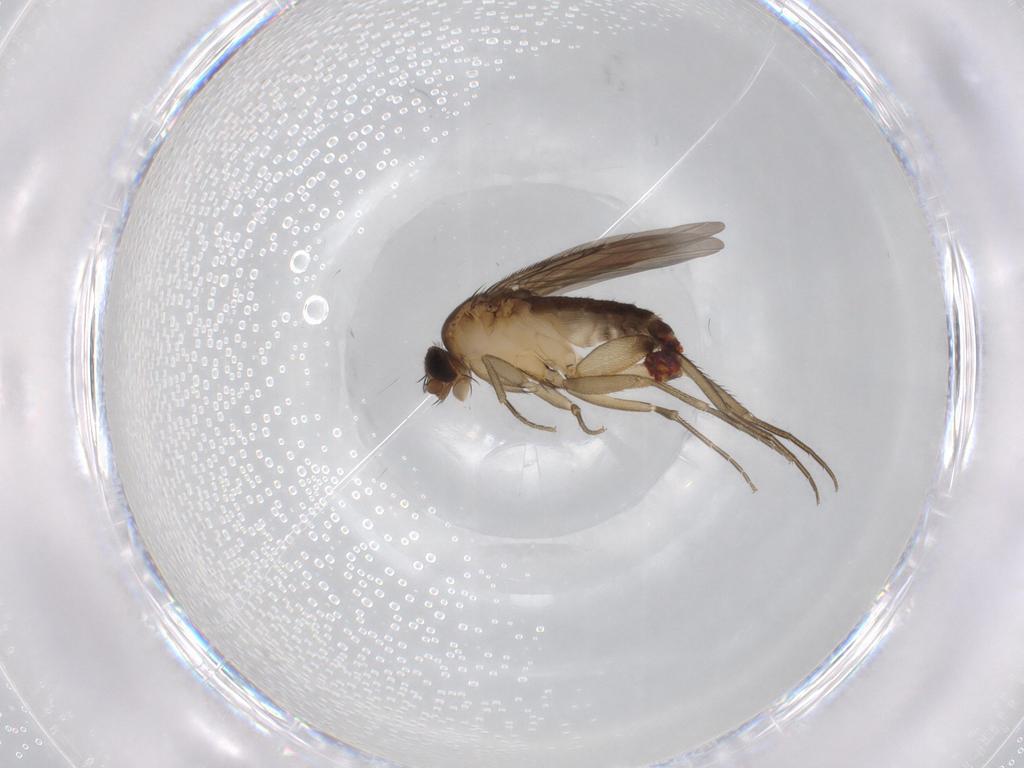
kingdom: Animalia
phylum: Arthropoda
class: Insecta
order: Diptera
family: Phoridae
